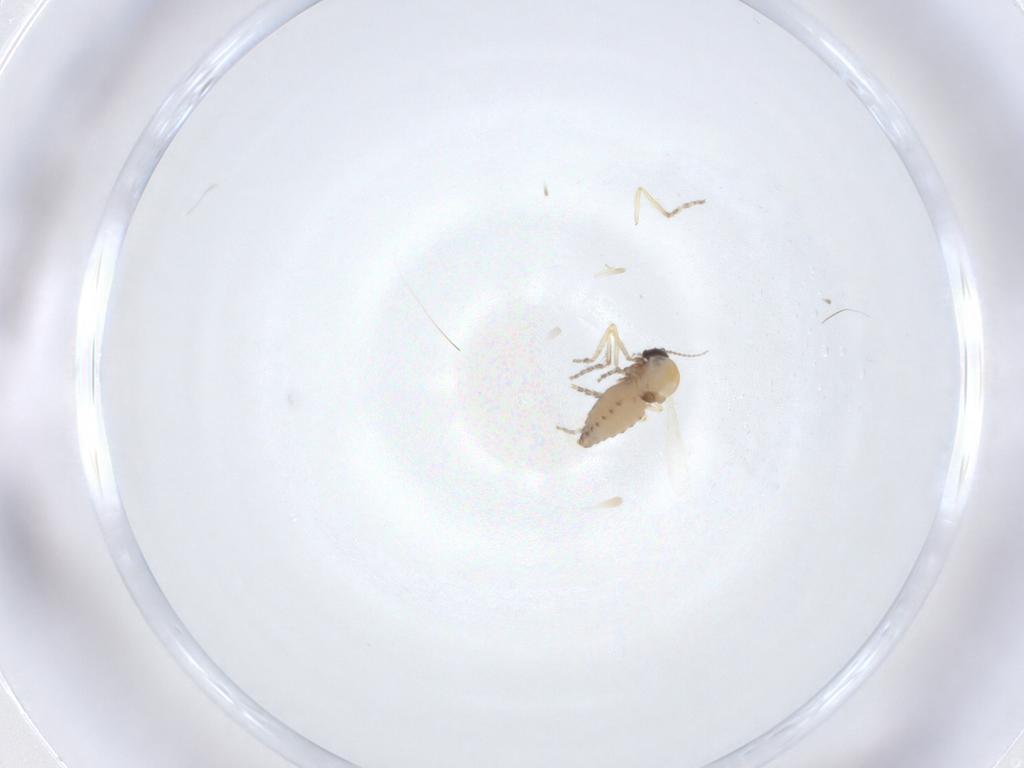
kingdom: Animalia
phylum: Arthropoda
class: Insecta
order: Diptera
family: Ceratopogonidae
